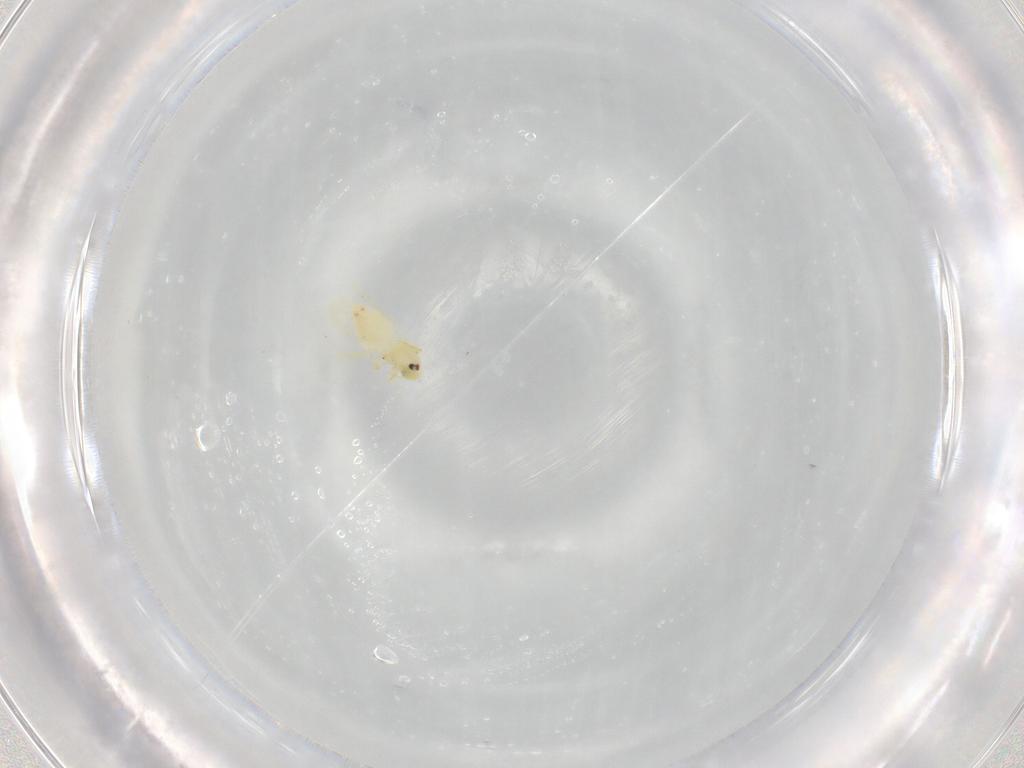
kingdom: Animalia
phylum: Arthropoda
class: Insecta
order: Hemiptera
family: Aleyrodidae
